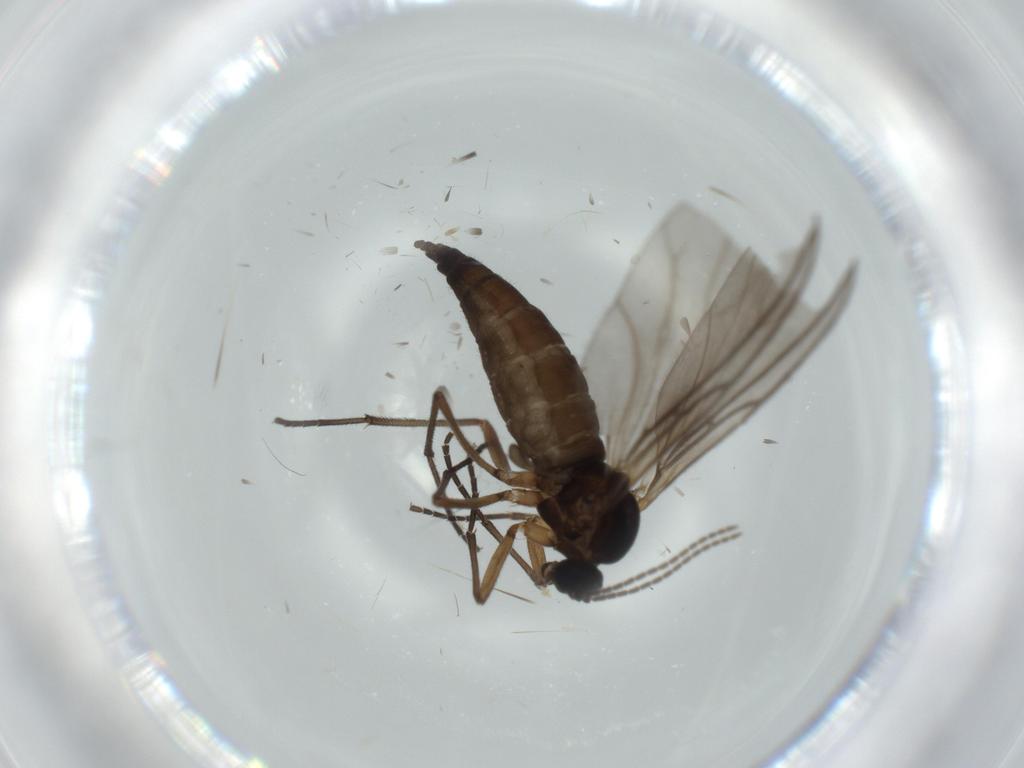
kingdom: Animalia
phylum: Arthropoda
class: Insecta
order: Diptera
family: Sciaridae
